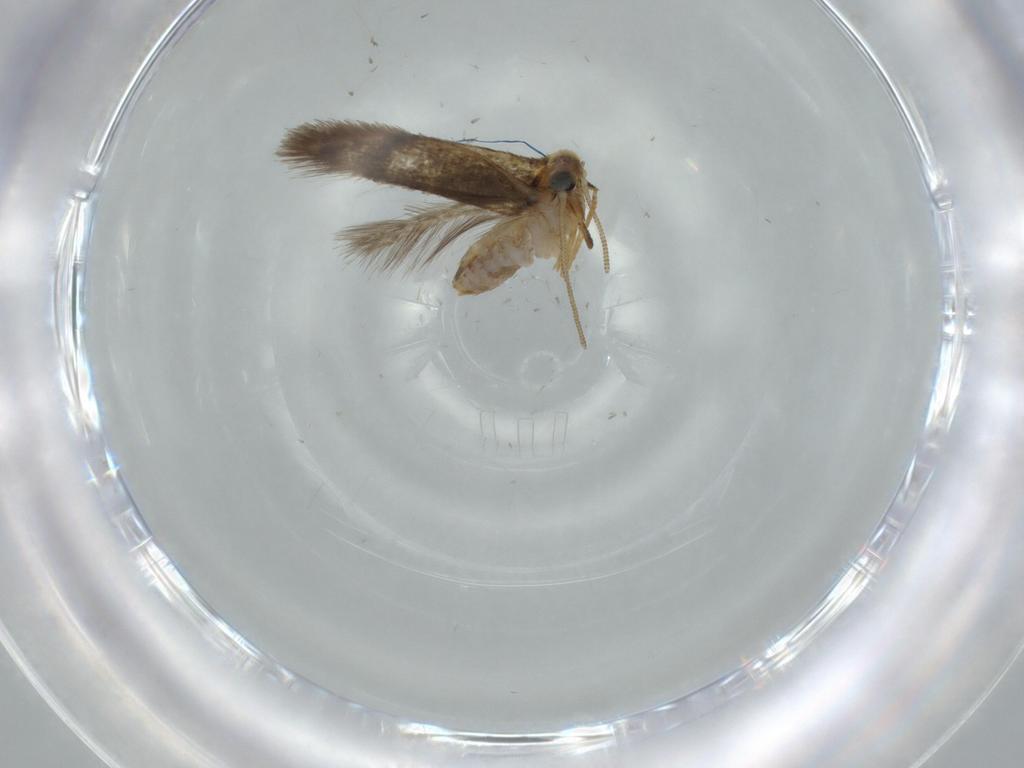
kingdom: Animalia
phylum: Arthropoda
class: Insecta
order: Lepidoptera
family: Nepticulidae
